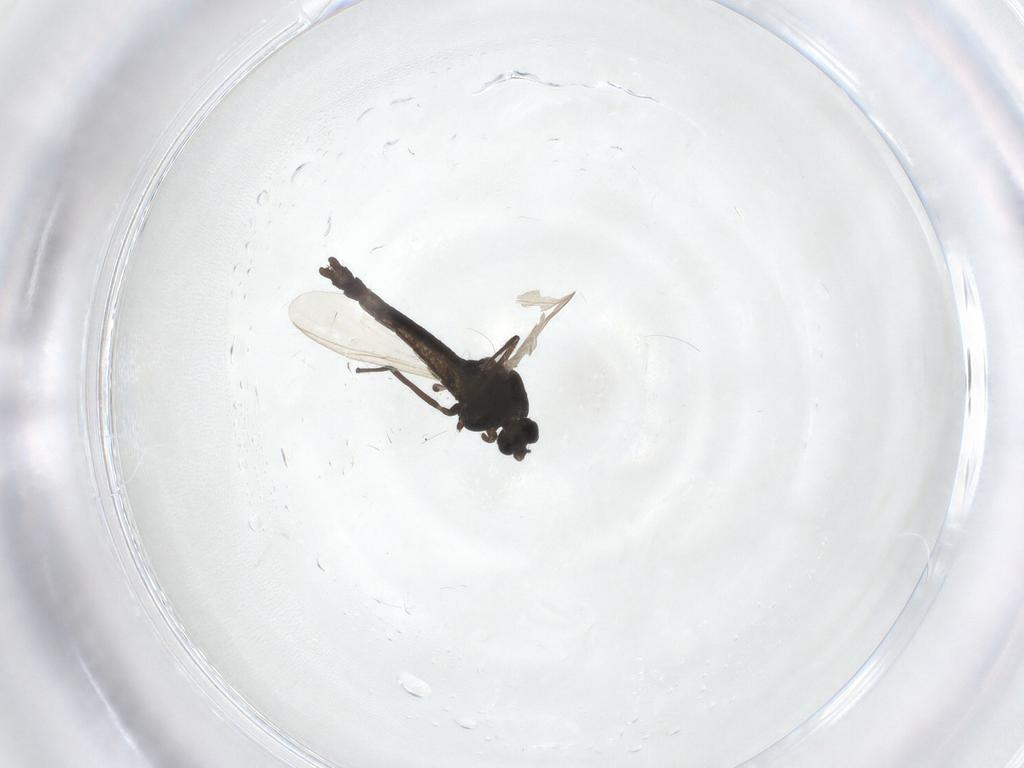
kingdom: Animalia
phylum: Arthropoda
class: Insecta
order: Diptera
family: Chironomidae
